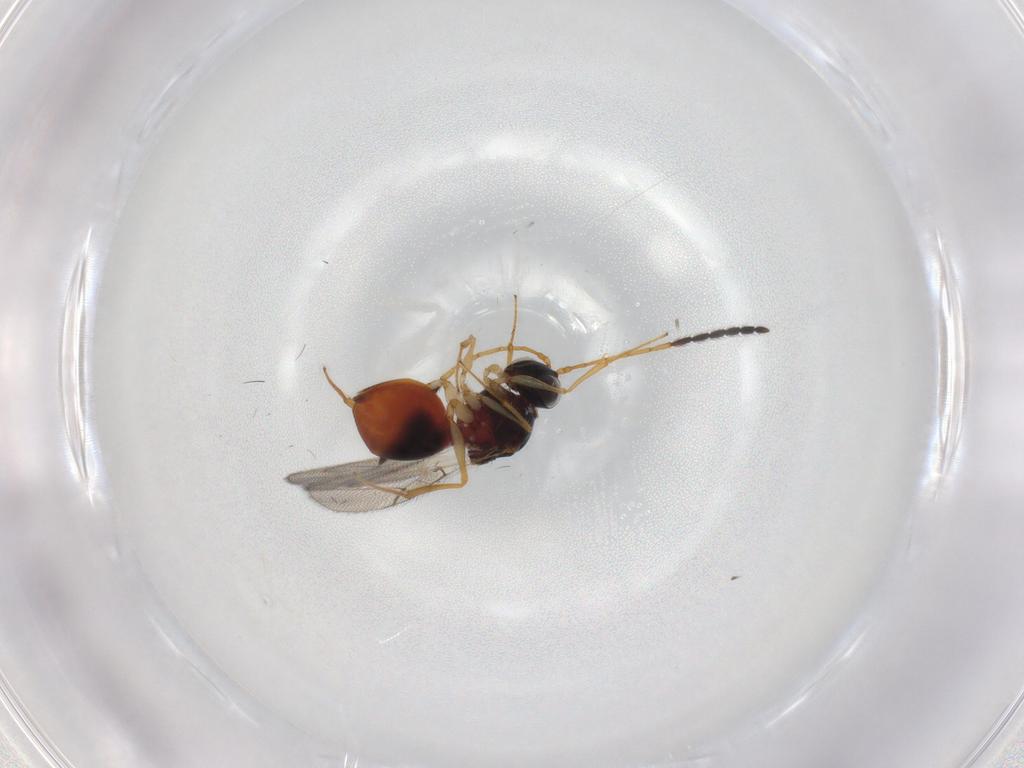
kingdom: Animalia
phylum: Arthropoda
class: Insecta
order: Hymenoptera
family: Figitidae
